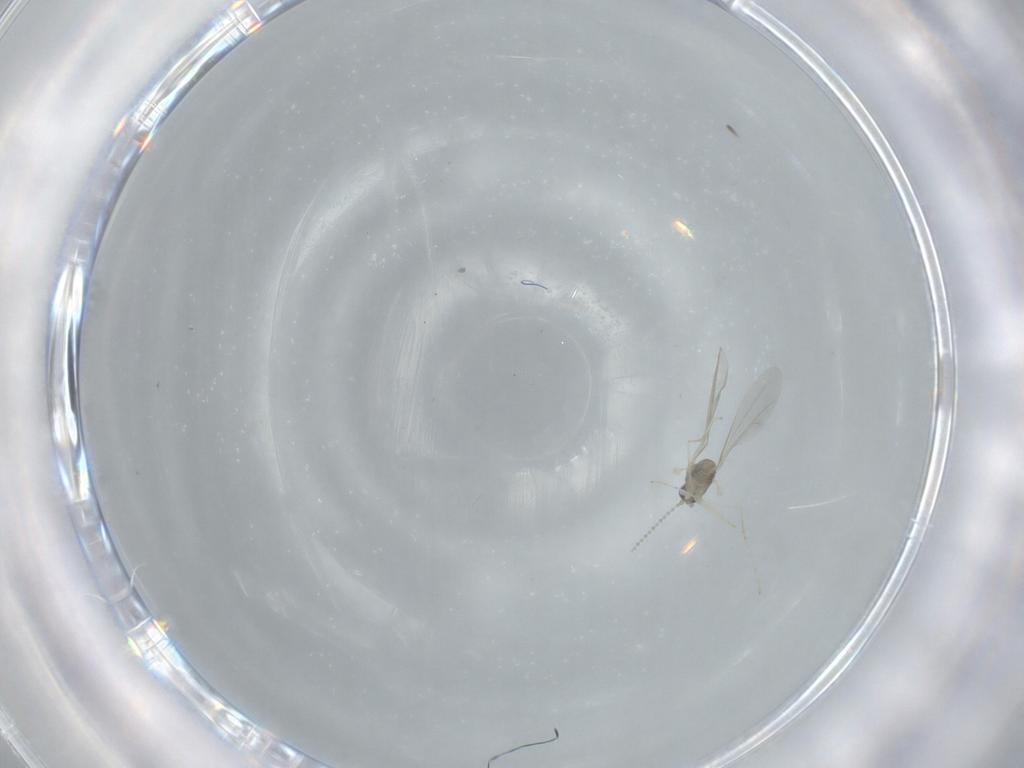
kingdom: Animalia
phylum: Arthropoda
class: Insecta
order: Diptera
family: Cecidomyiidae
